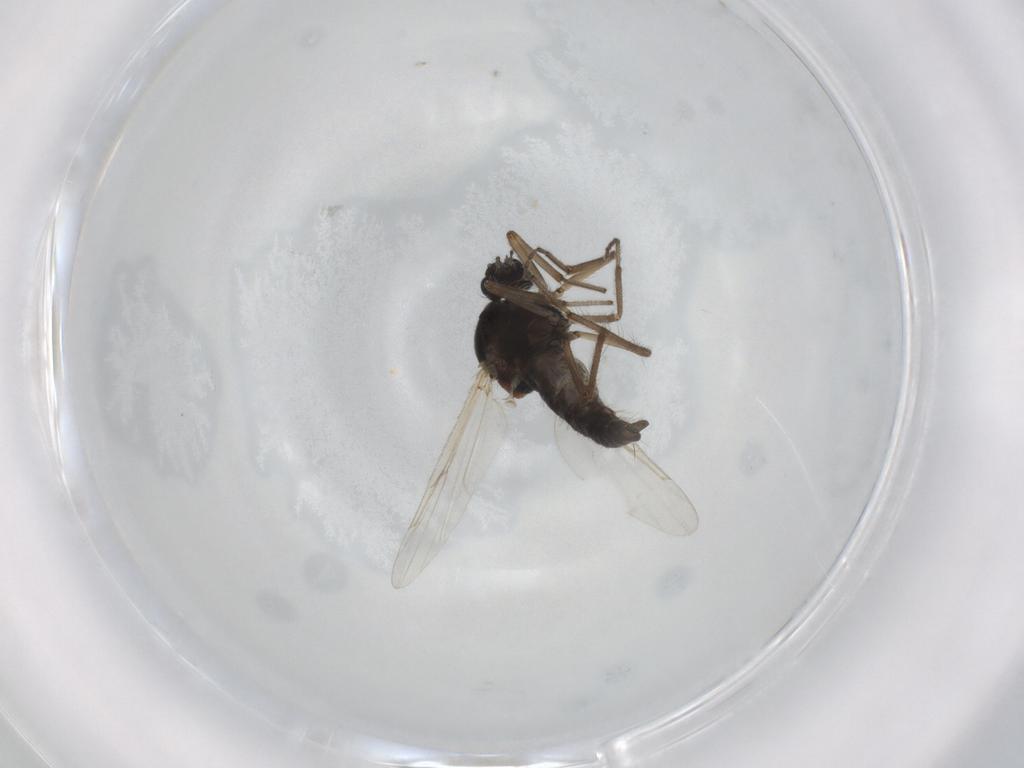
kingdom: Animalia
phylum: Arthropoda
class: Insecta
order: Diptera
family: Ceratopogonidae
